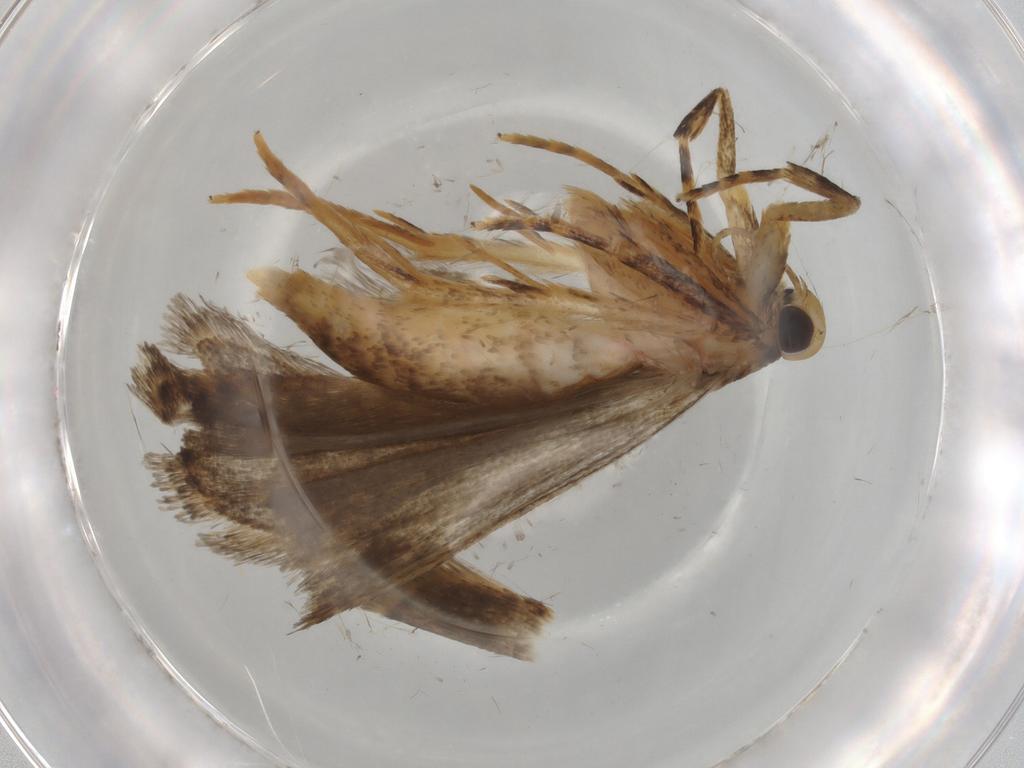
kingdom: Animalia
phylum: Arthropoda
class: Insecta
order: Lepidoptera
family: Autostichidae
